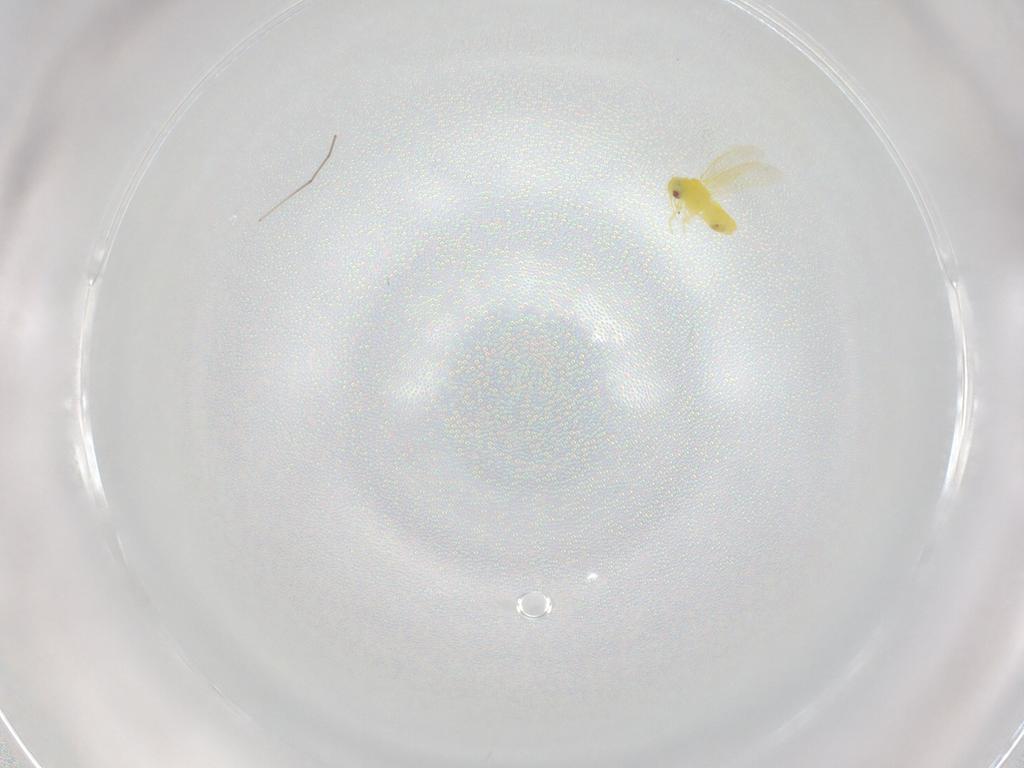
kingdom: Animalia
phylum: Arthropoda
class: Insecta
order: Hemiptera
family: Aleyrodidae
